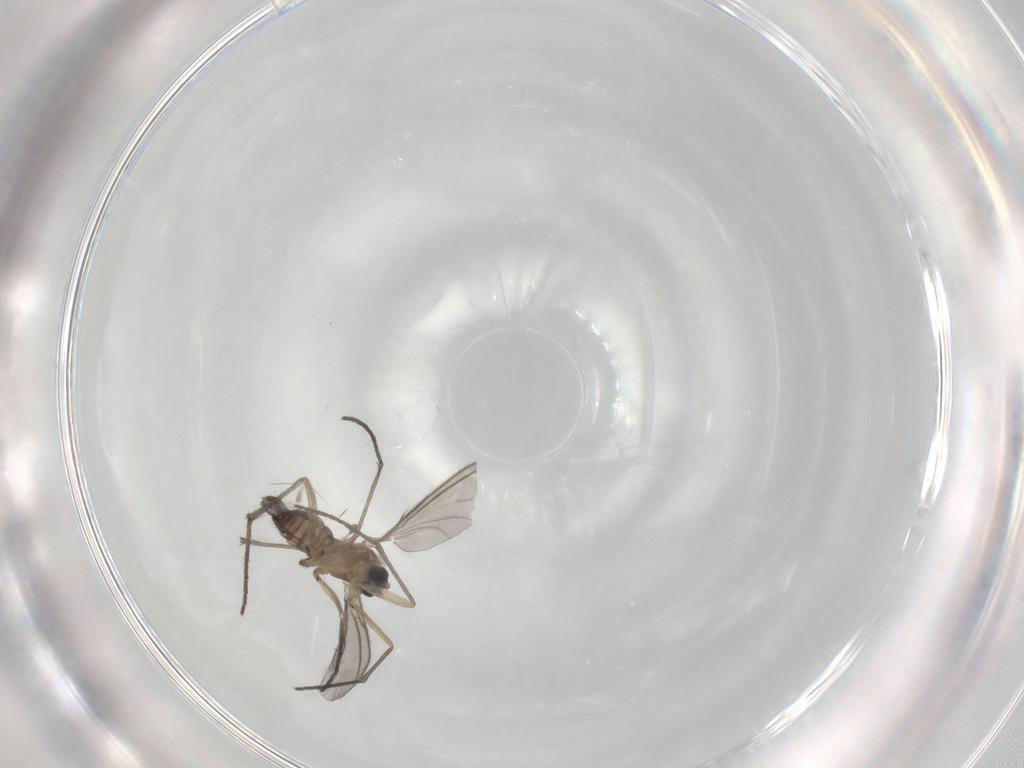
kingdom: Animalia
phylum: Arthropoda
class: Insecta
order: Diptera
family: Sciaridae
